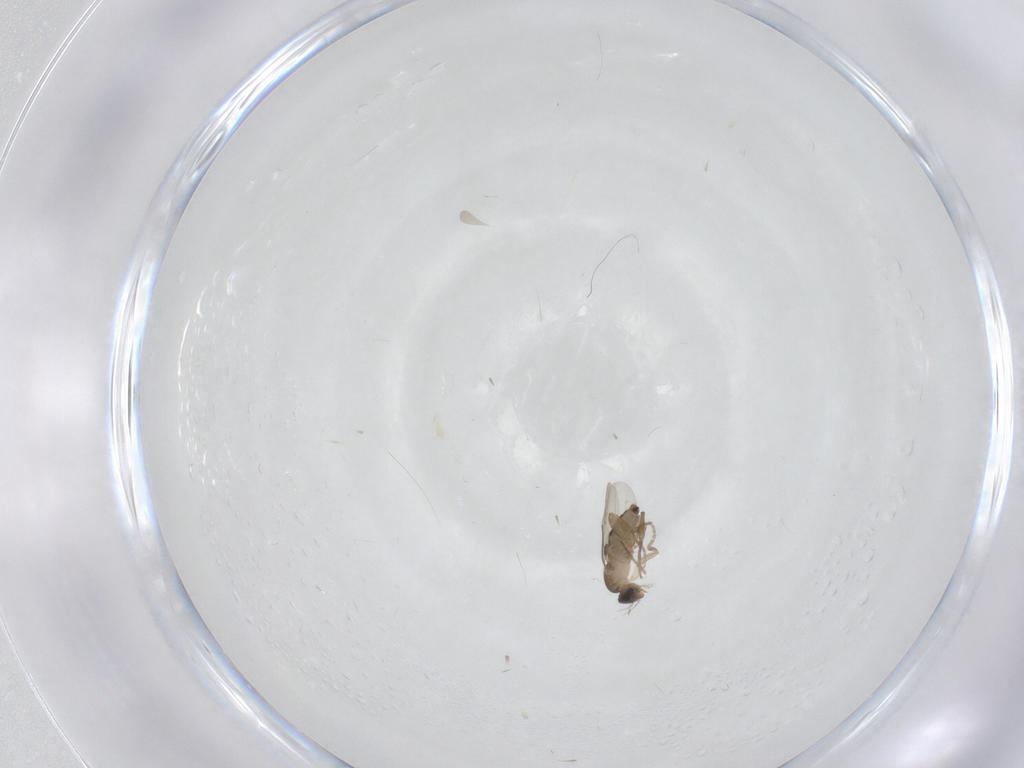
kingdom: Animalia
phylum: Arthropoda
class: Insecta
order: Diptera
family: Phoridae
